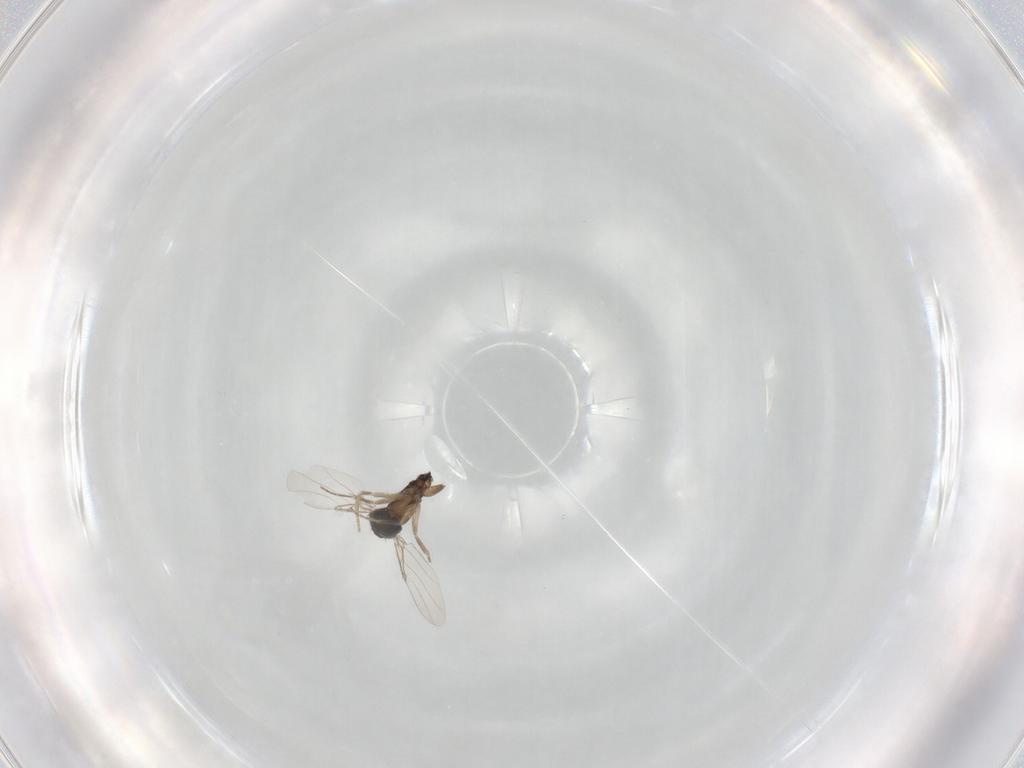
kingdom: Animalia
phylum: Arthropoda
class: Insecta
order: Diptera
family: Phoridae
